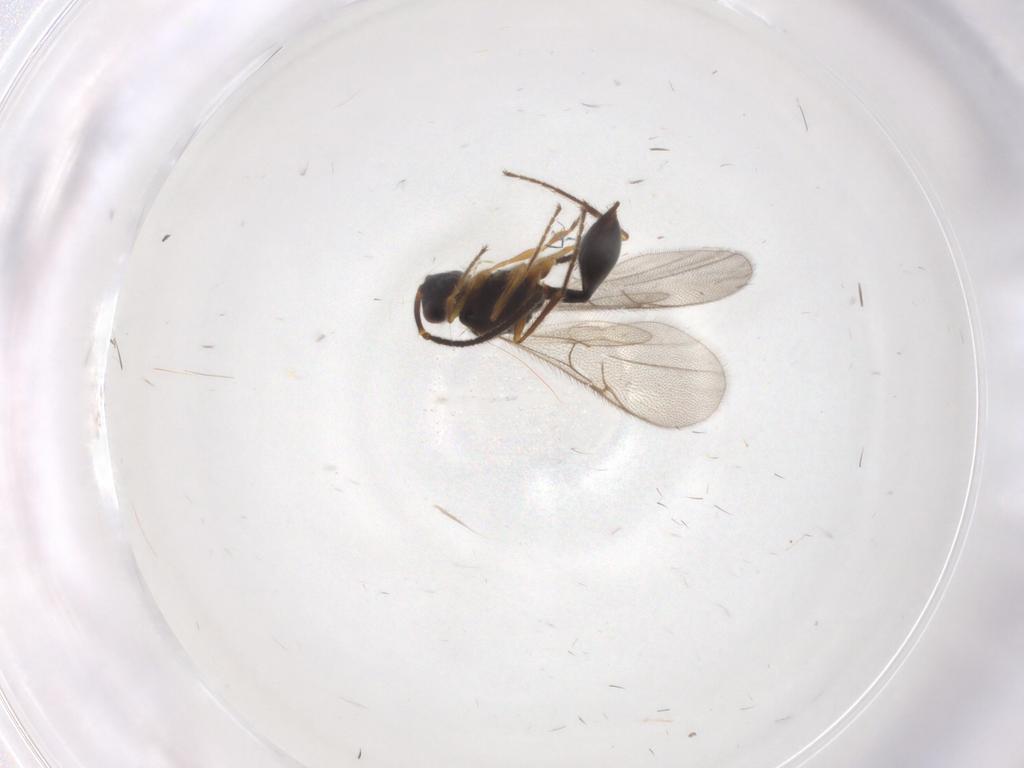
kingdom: Animalia
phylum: Arthropoda
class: Insecta
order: Hymenoptera
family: Diapriidae
